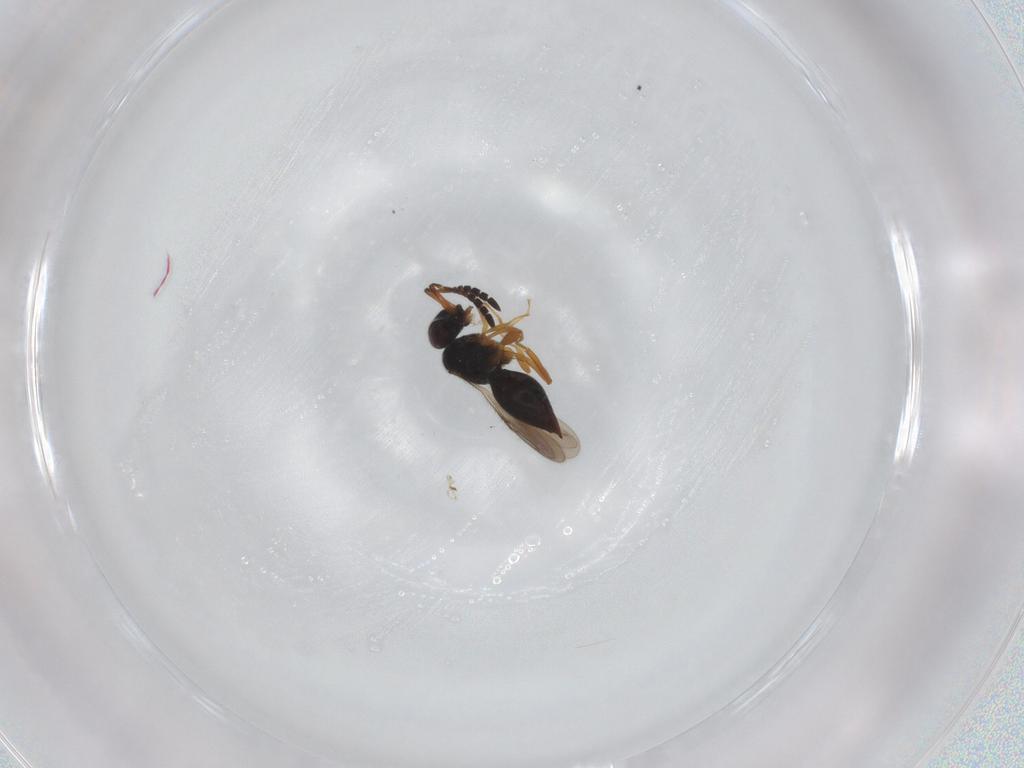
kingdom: Animalia
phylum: Arthropoda
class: Insecta
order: Hymenoptera
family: Ceraphronidae
